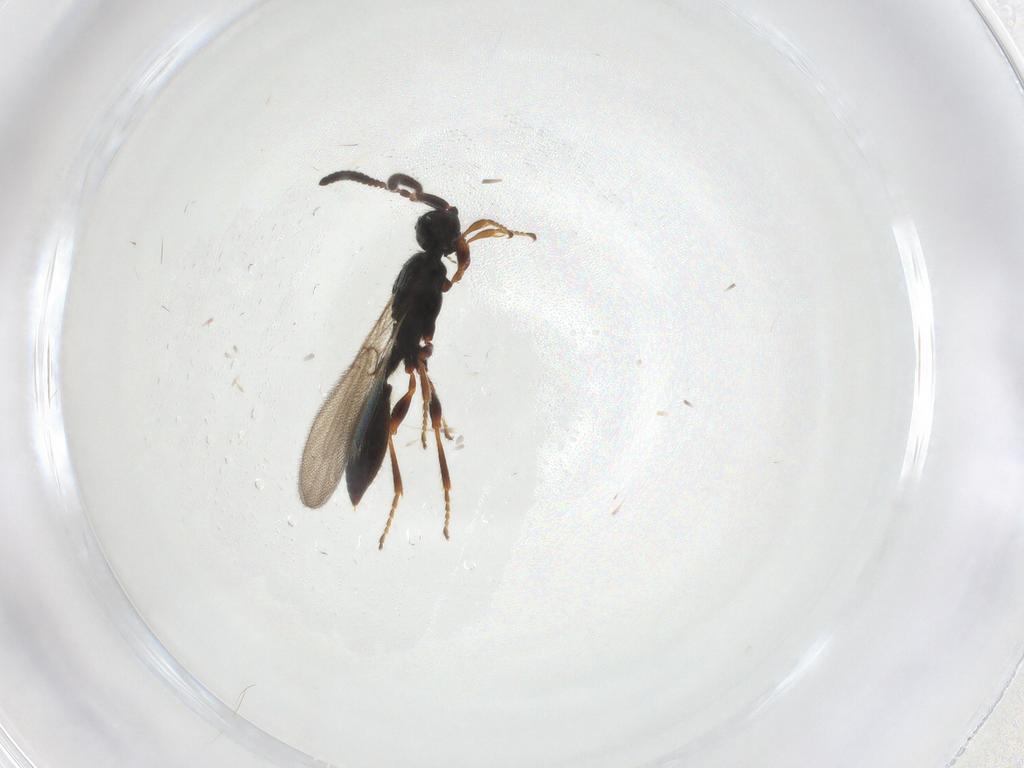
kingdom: Animalia
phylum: Arthropoda
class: Insecta
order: Hymenoptera
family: Diapriidae
